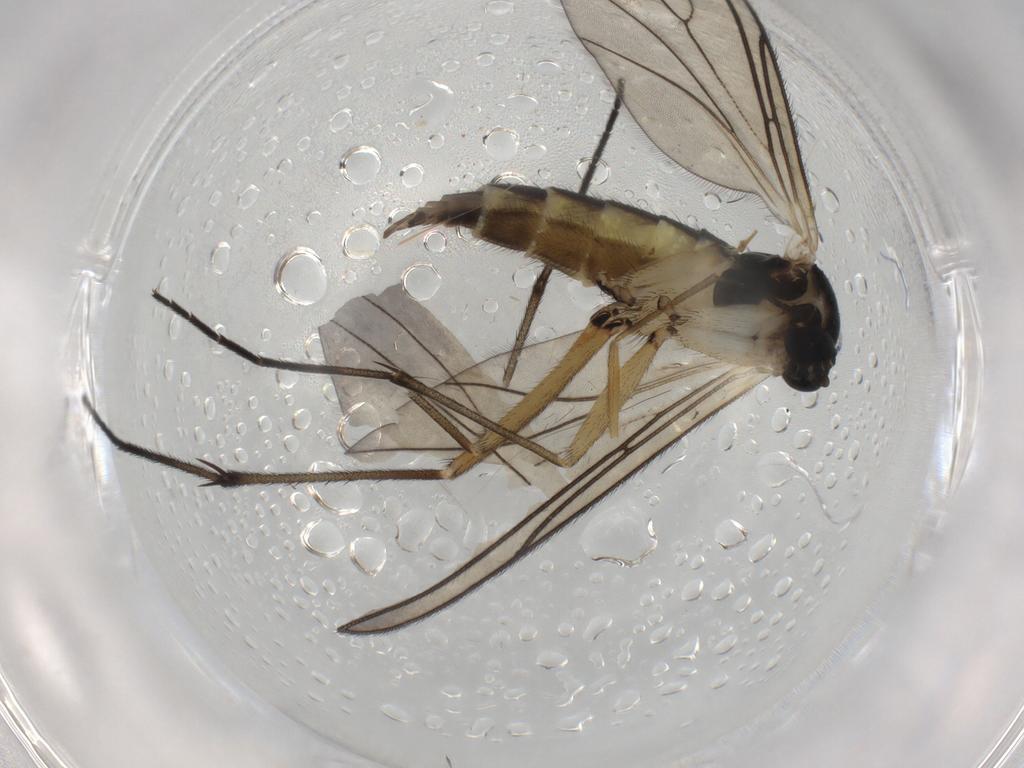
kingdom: Animalia
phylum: Arthropoda
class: Insecta
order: Diptera
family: Sciaridae
